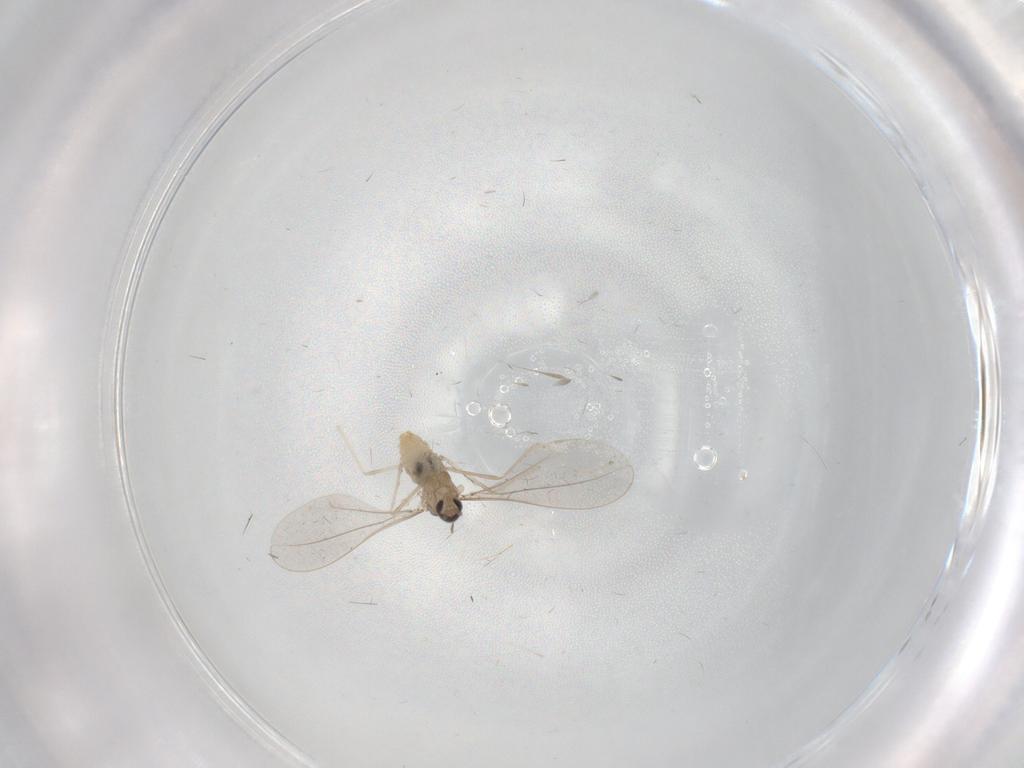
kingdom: Animalia
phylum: Arthropoda
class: Insecta
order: Diptera
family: Cecidomyiidae
